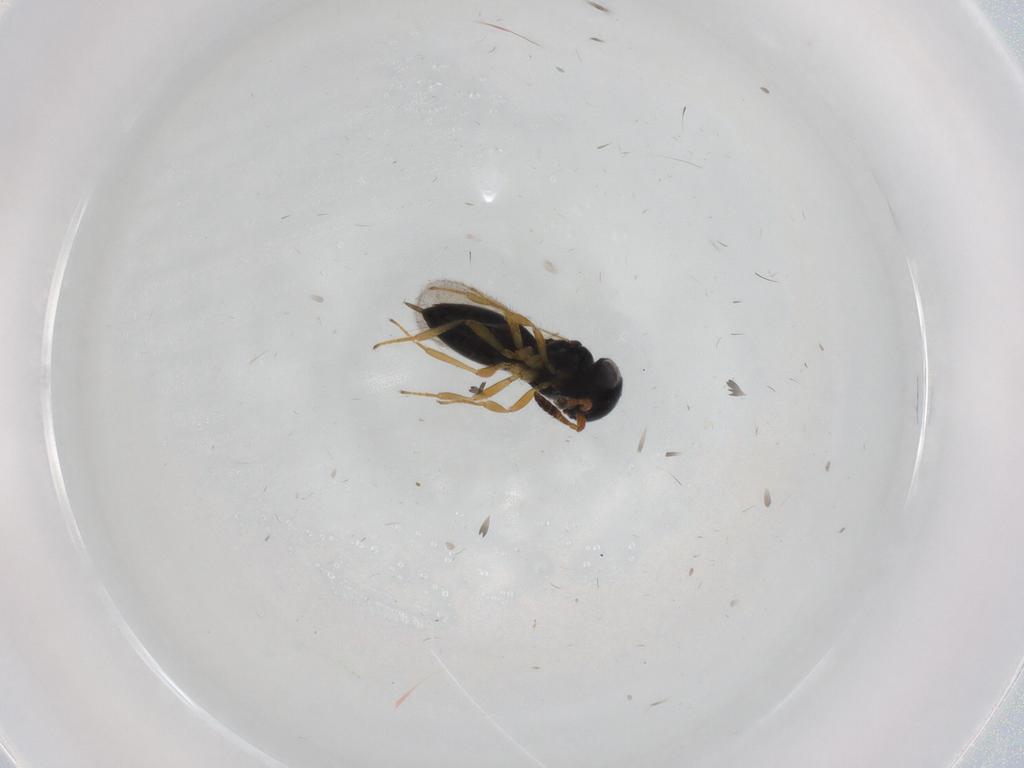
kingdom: Animalia
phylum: Arthropoda
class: Insecta
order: Hymenoptera
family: Scelionidae
